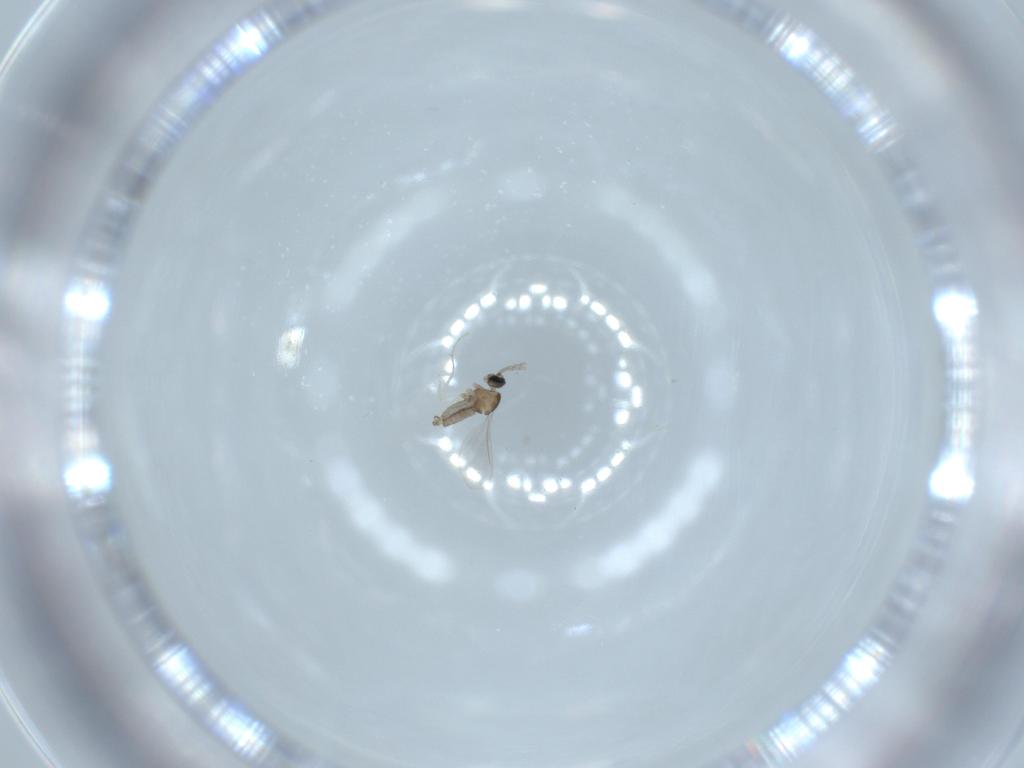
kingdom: Animalia
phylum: Arthropoda
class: Insecta
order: Diptera
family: Cecidomyiidae
